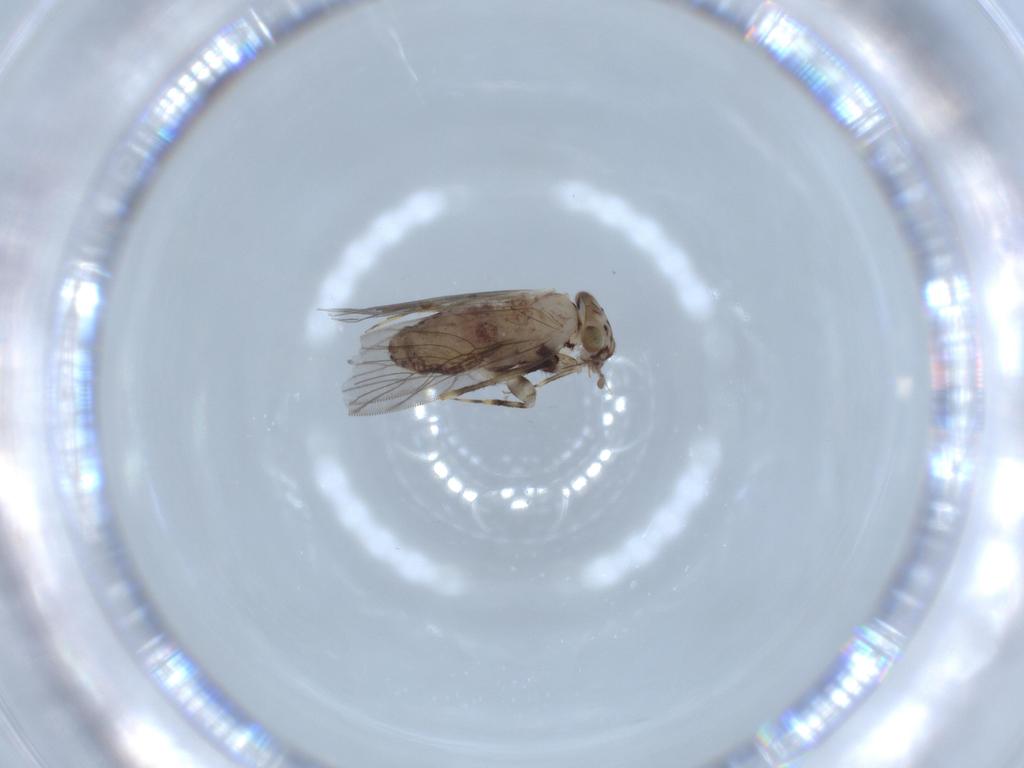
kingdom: Animalia
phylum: Arthropoda
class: Insecta
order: Psocodea
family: Lepidopsocidae
